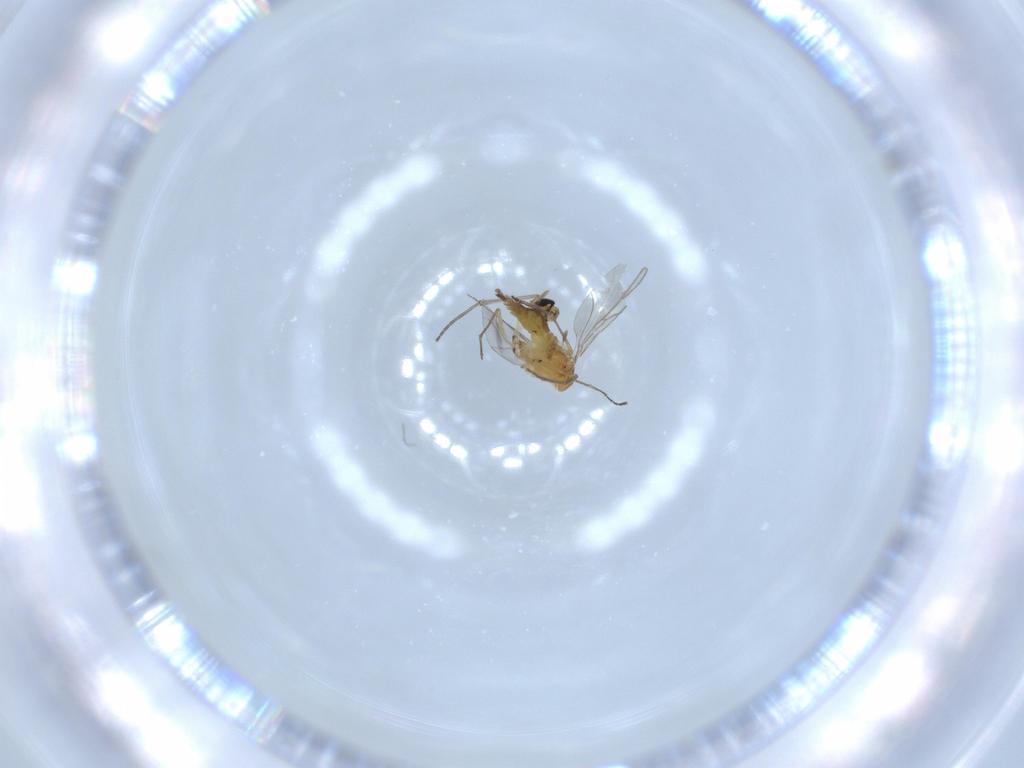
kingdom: Animalia
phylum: Arthropoda
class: Insecta
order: Diptera
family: Sciaridae
